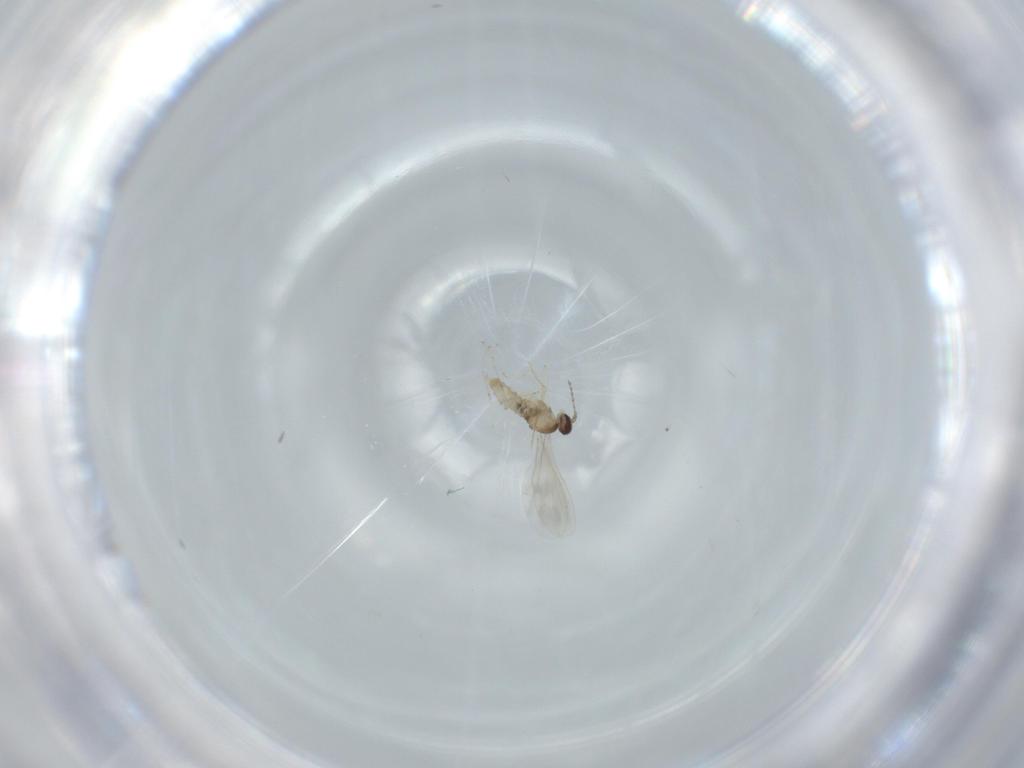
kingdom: Animalia
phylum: Arthropoda
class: Insecta
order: Diptera
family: Cecidomyiidae
